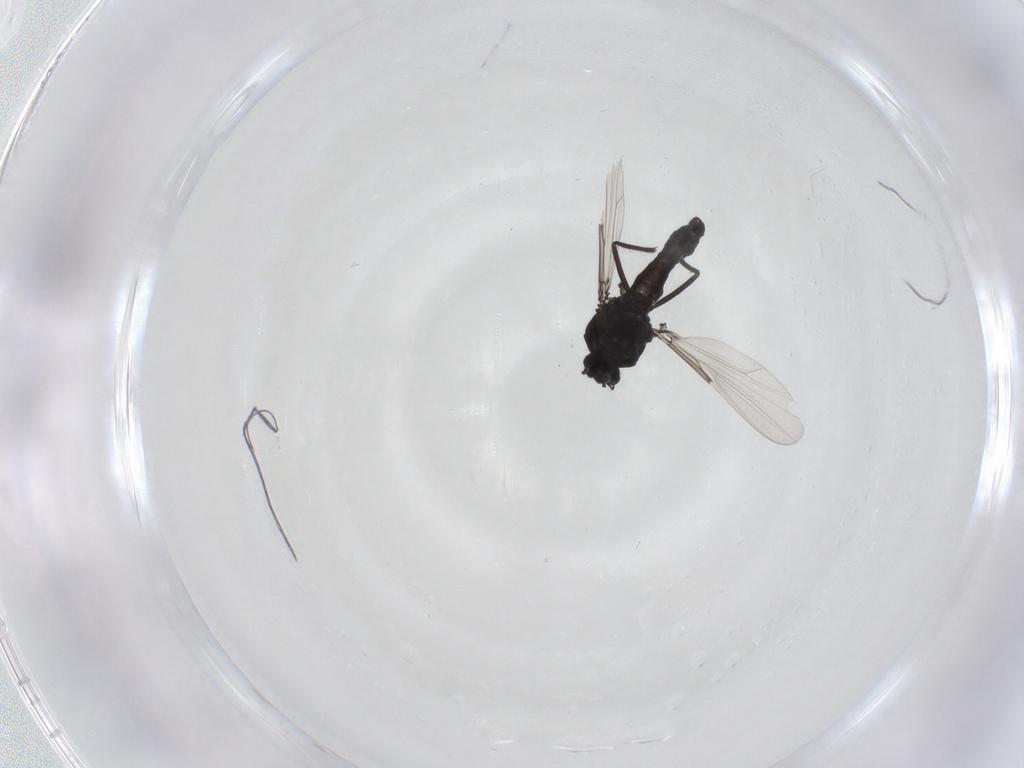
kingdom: Animalia
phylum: Arthropoda
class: Insecta
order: Diptera
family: Ceratopogonidae
